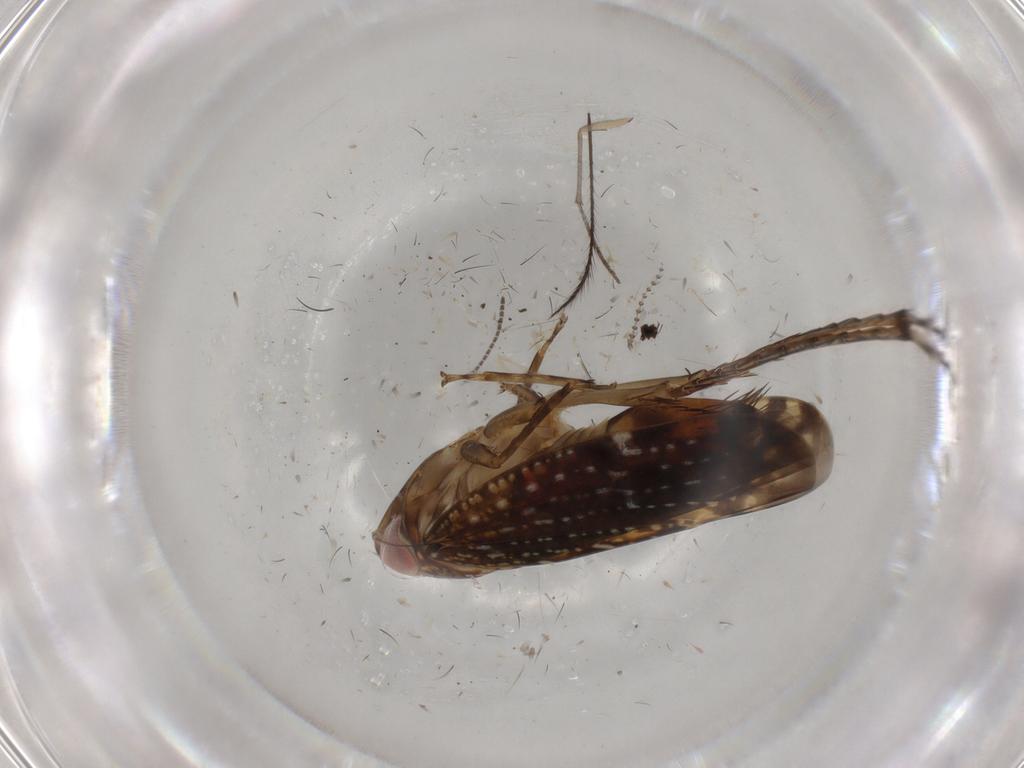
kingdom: Animalia
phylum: Arthropoda
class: Insecta
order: Hemiptera
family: Cicadellidae
